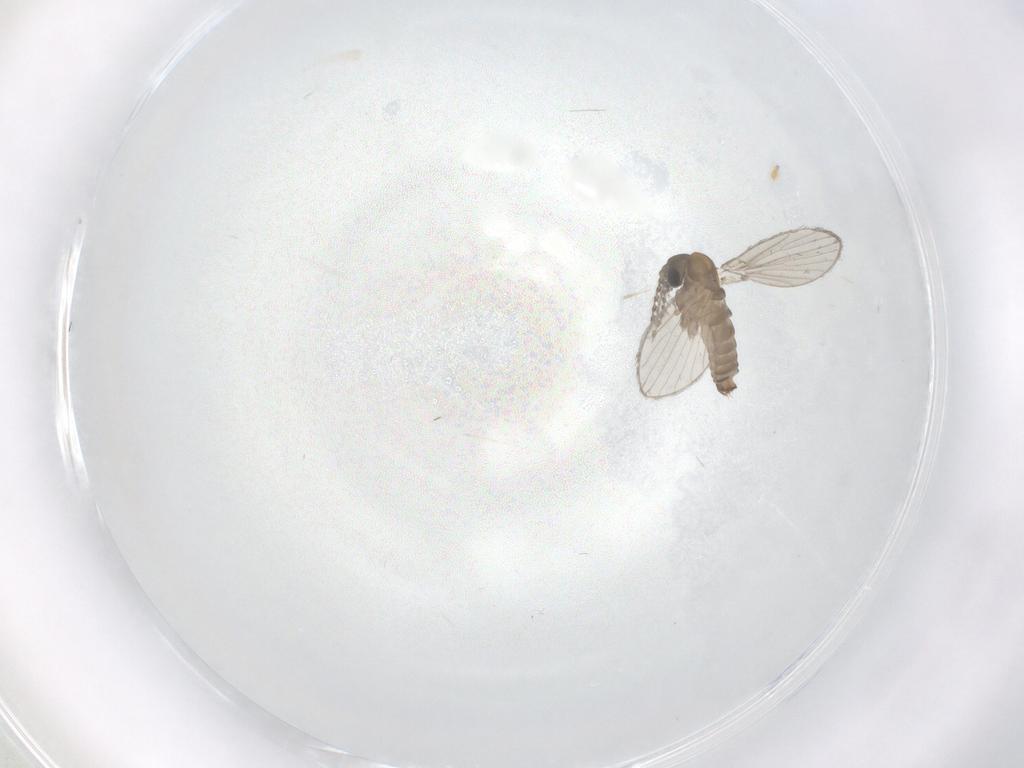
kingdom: Animalia
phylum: Arthropoda
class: Insecta
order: Diptera
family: Psychodidae
